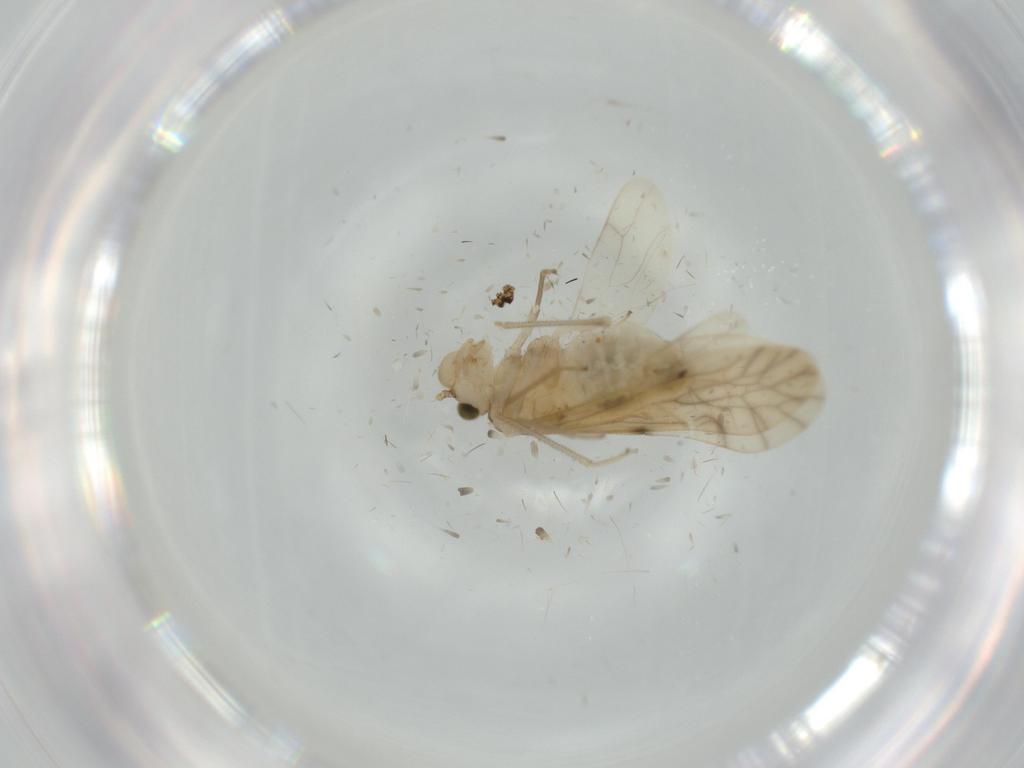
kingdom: Animalia
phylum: Arthropoda
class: Insecta
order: Psocodea
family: Caeciliusidae
